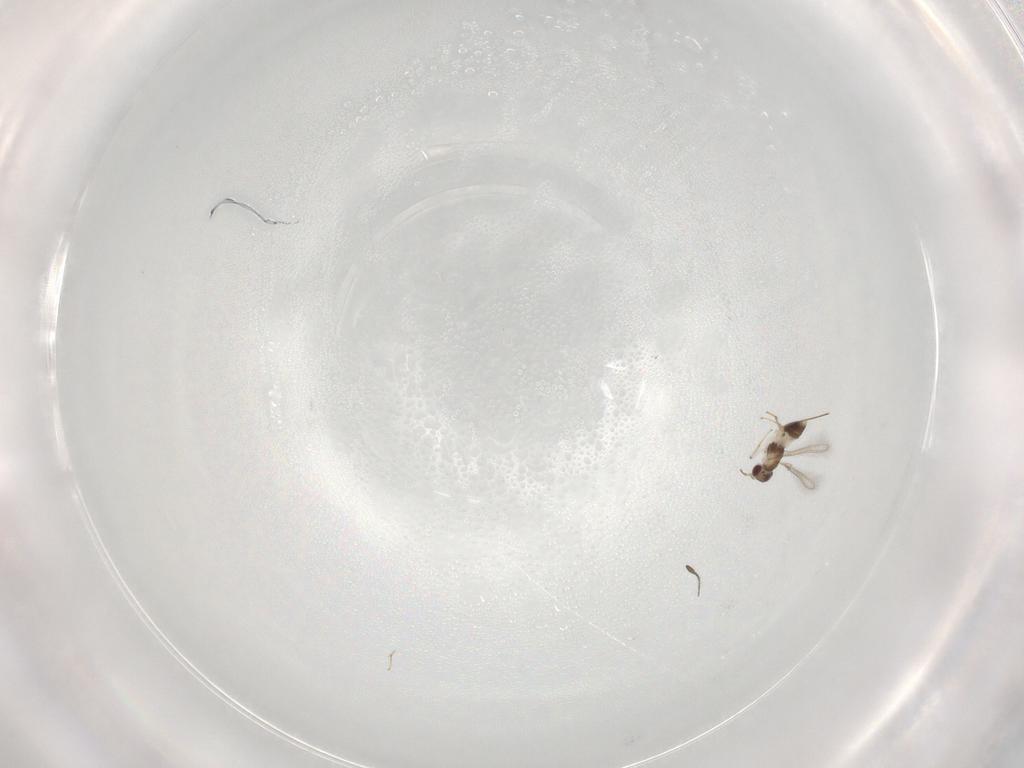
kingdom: Animalia
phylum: Arthropoda
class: Insecta
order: Hymenoptera
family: Mymaridae
